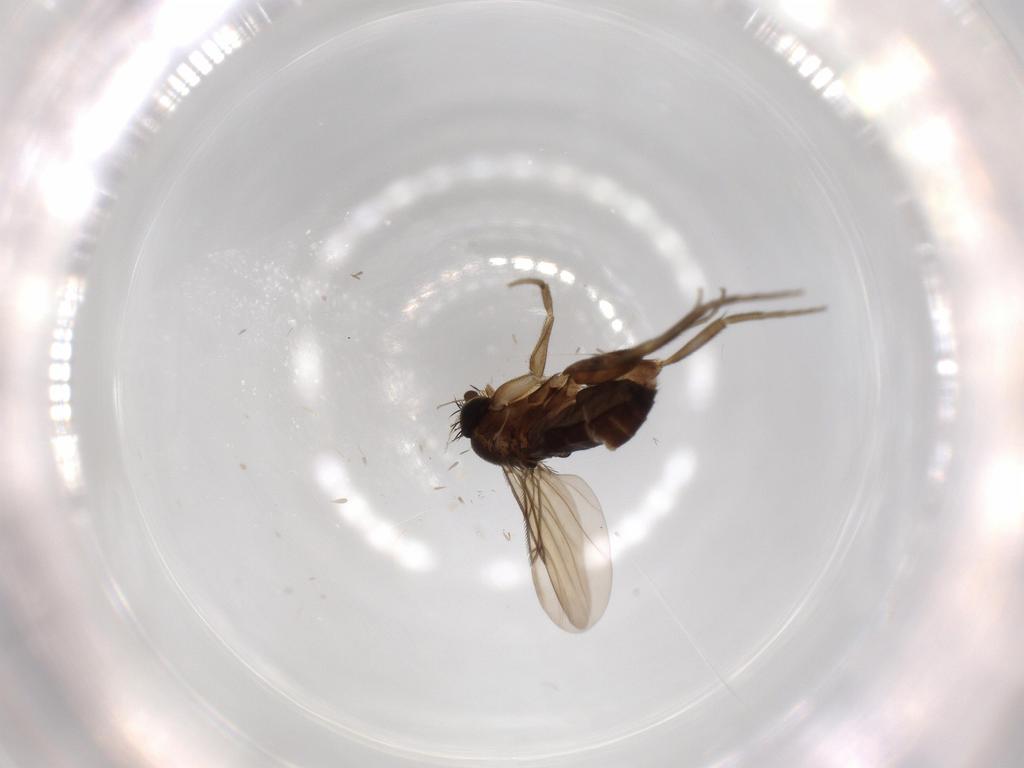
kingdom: Animalia
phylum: Arthropoda
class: Insecta
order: Diptera
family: Phoridae
